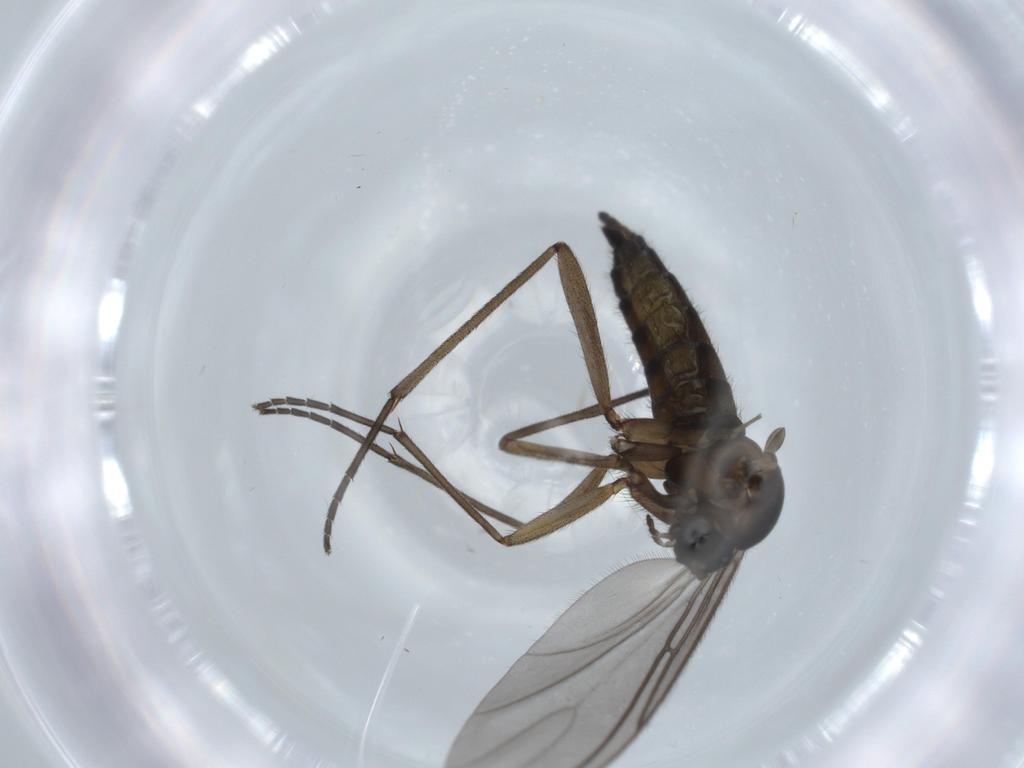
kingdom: Animalia
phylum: Arthropoda
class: Insecta
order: Diptera
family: Sciaridae
